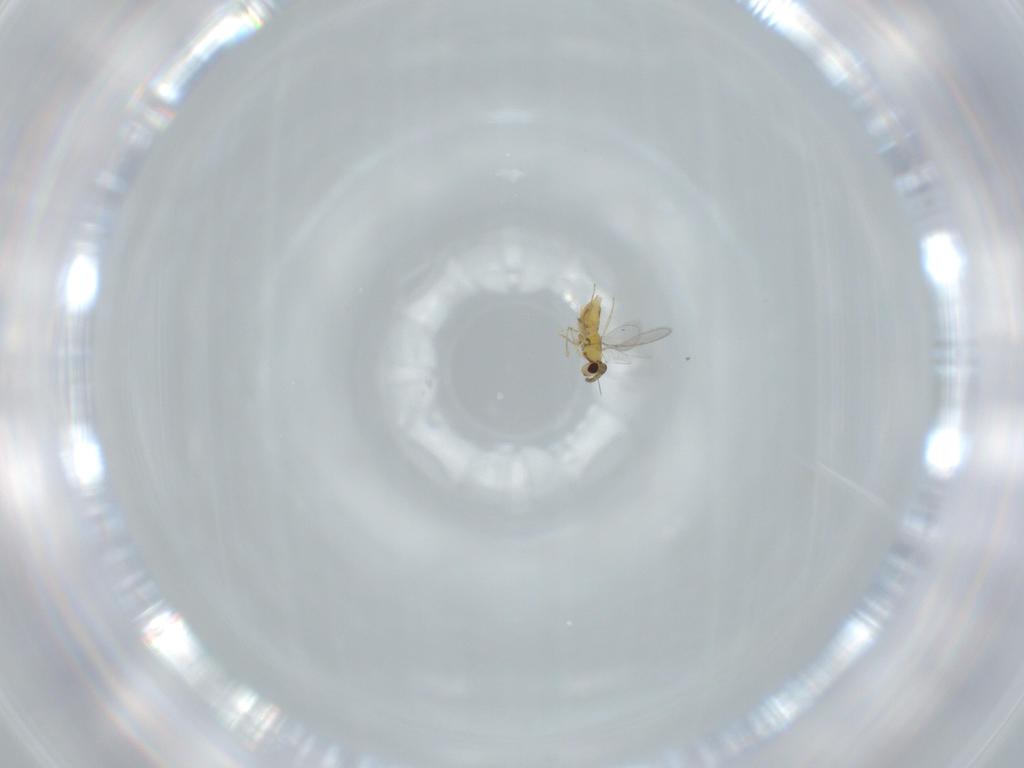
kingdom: Animalia
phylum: Arthropoda
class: Insecta
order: Hymenoptera
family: Aphelinidae
